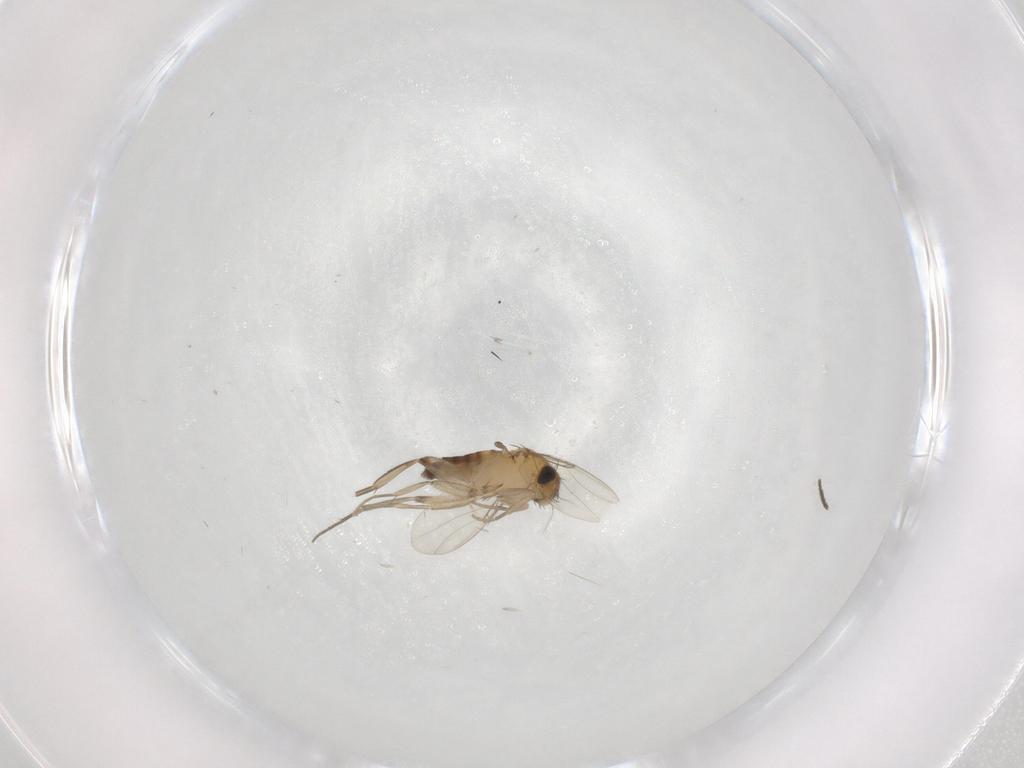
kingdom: Animalia
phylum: Arthropoda
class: Insecta
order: Diptera
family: Phoridae
